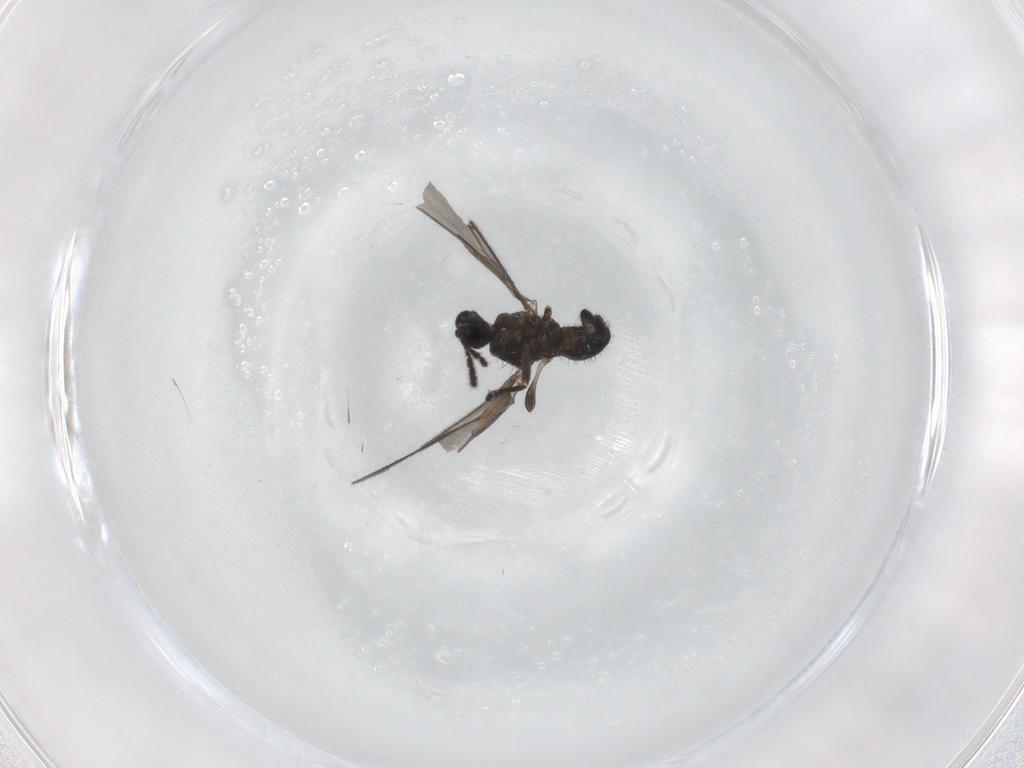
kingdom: Animalia
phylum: Arthropoda
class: Insecta
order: Diptera
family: Sciaridae
